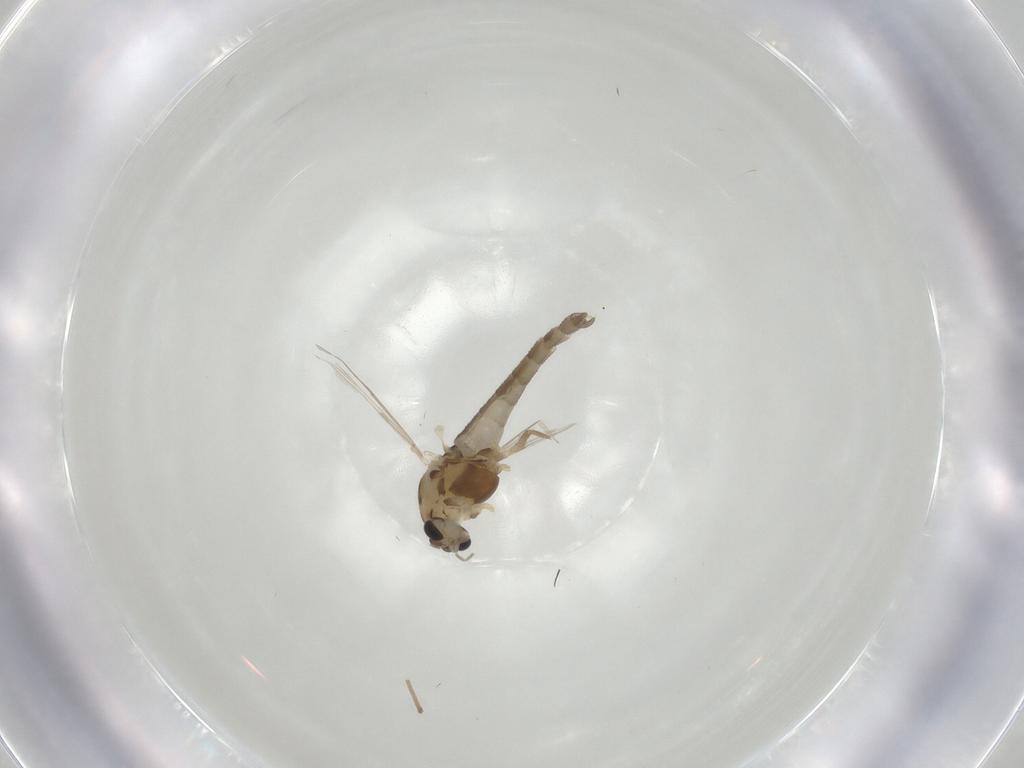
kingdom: Animalia
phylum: Arthropoda
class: Insecta
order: Diptera
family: Chironomidae
